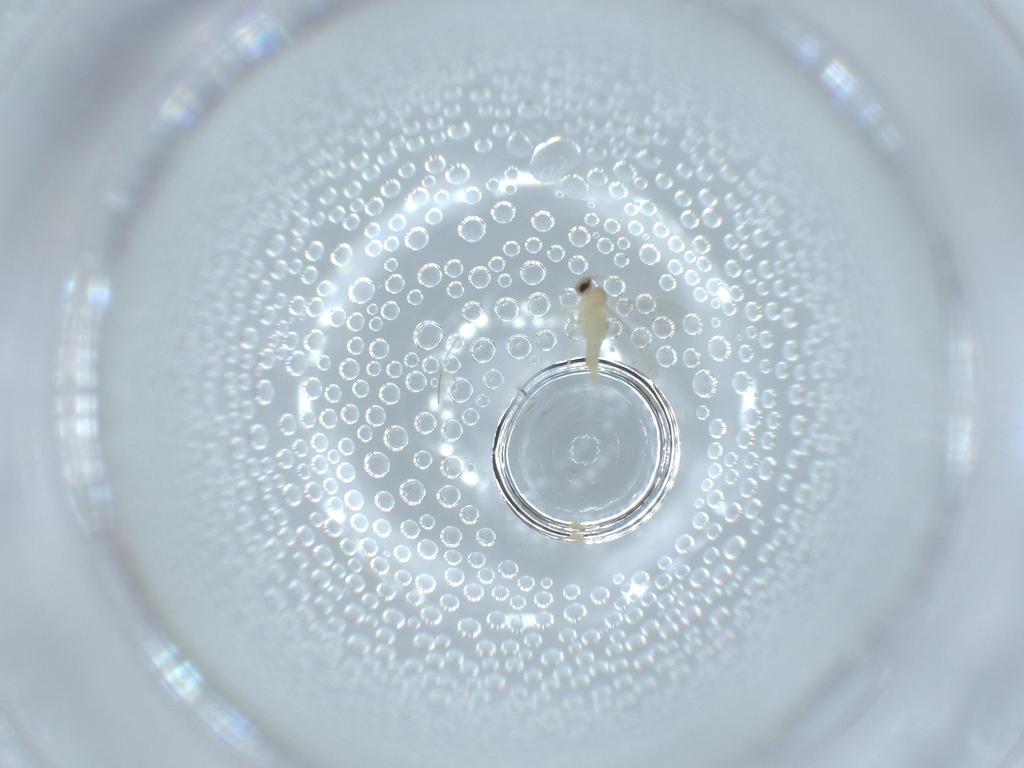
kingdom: Animalia
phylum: Arthropoda
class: Insecta
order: Diptera
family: Cecidomyiidae
